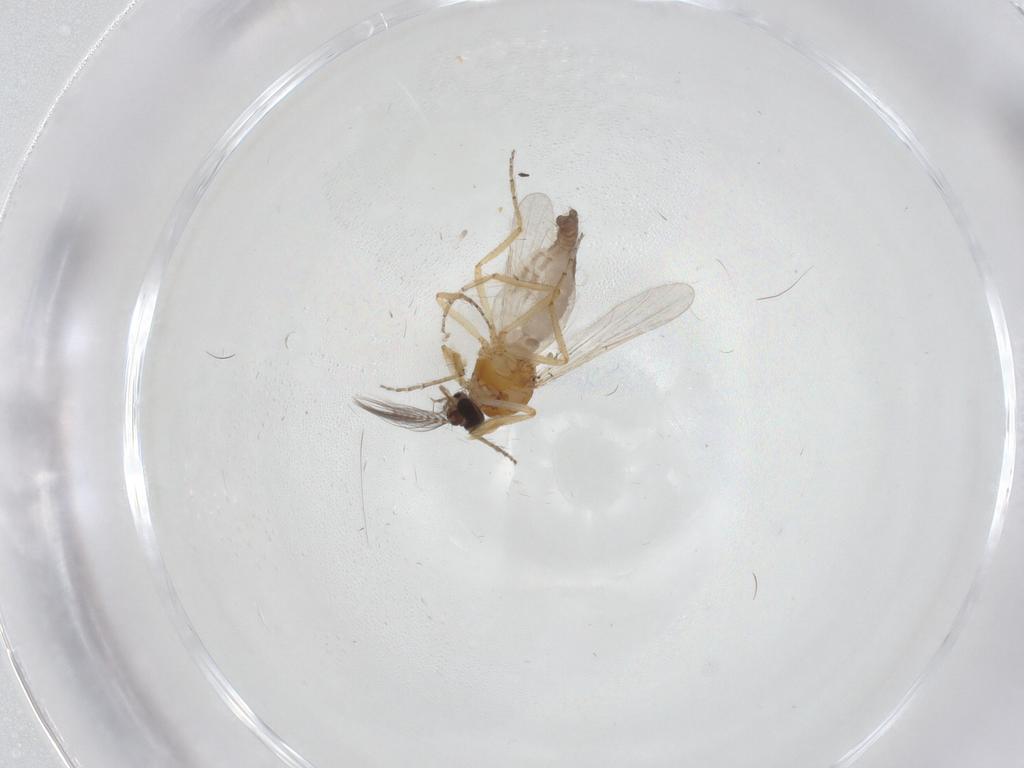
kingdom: Animalia
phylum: Arthropoda
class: Insecta
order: Diptera
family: Ceratopogonidae
